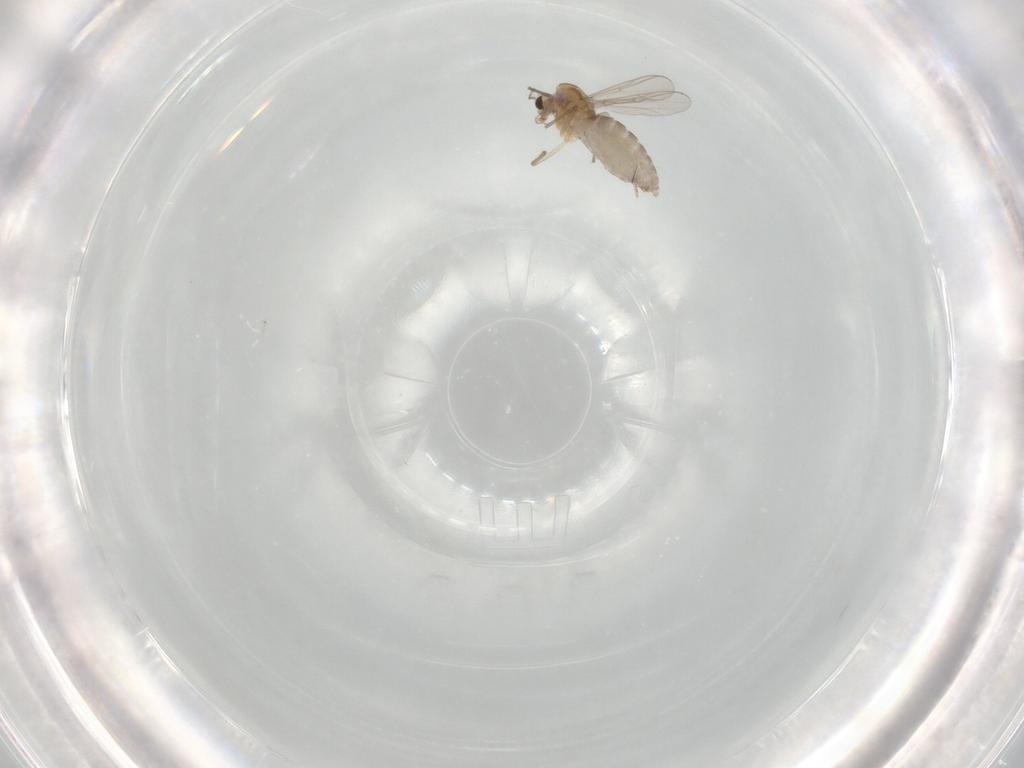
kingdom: Animalia
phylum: Arthropoda
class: Insecta
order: Diptera
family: Chironomidae
